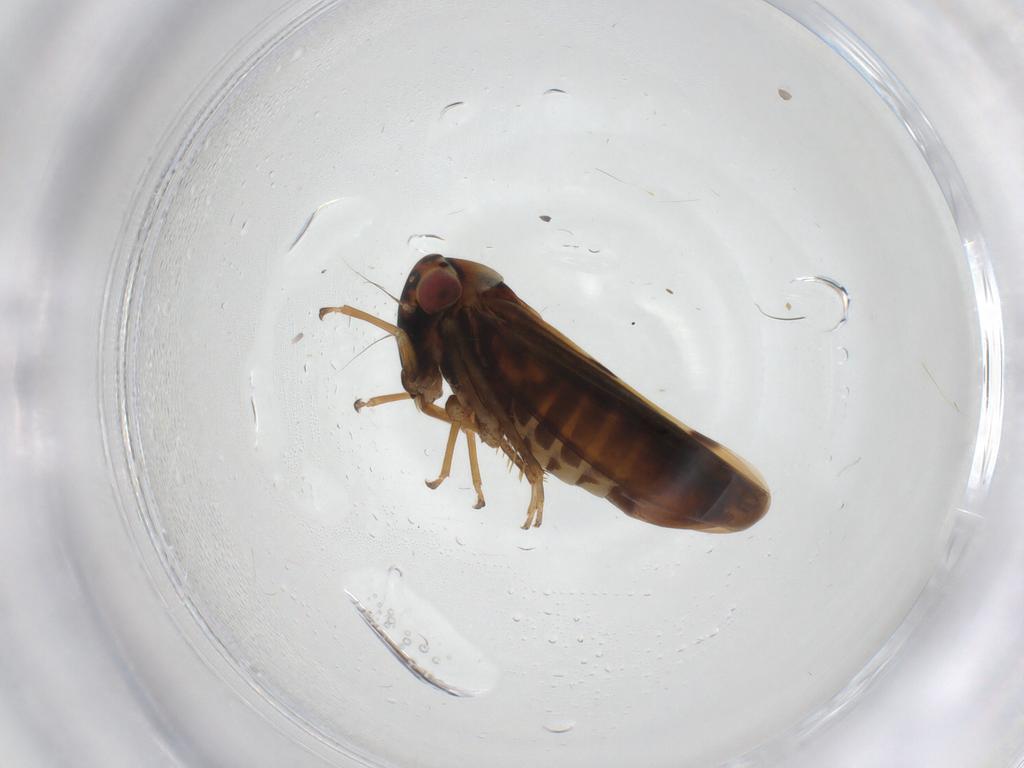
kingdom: Animalia
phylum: Arthropoda
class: Insecta
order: Hemiptera
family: Cicadellidae
